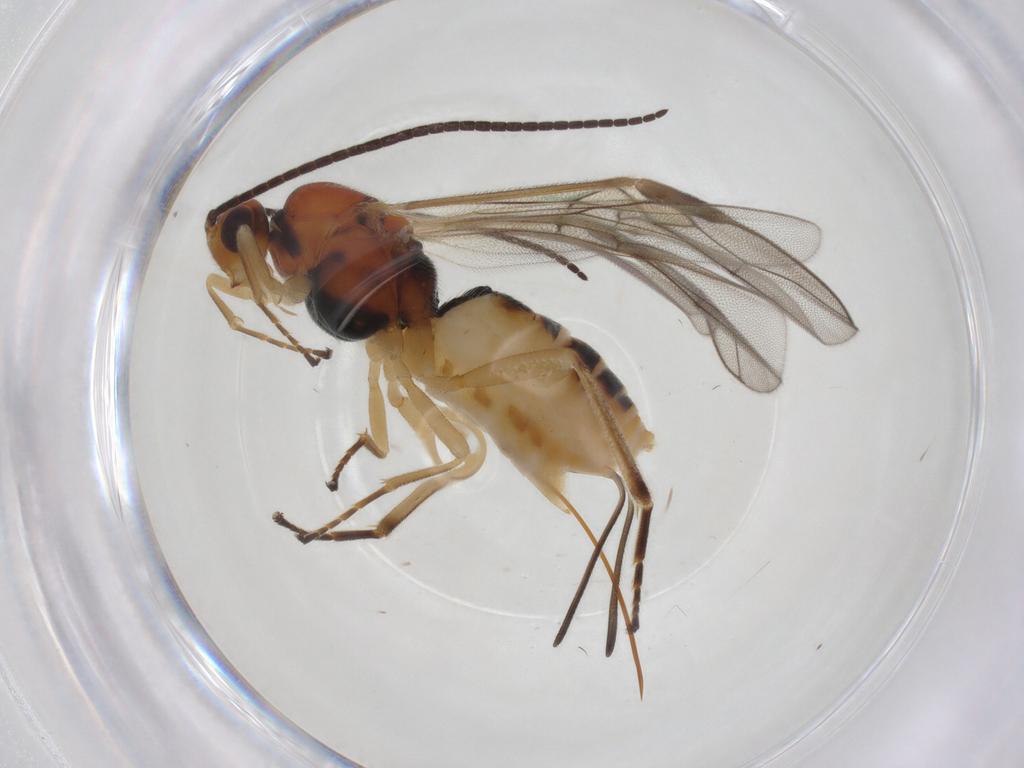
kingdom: Animalia
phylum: Arthropoda
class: Insecta
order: Hymenoptera
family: Braconidae
